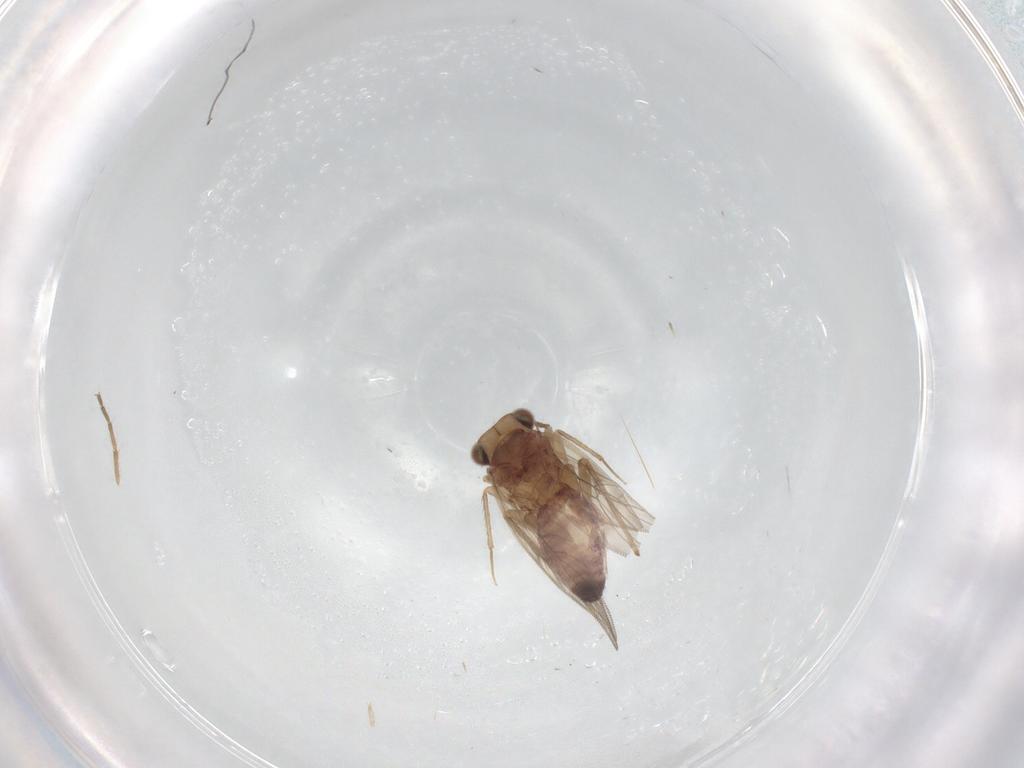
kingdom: Animalia
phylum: Arthropoda
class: Insecta
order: Psocodea
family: Lepidopsocidae
